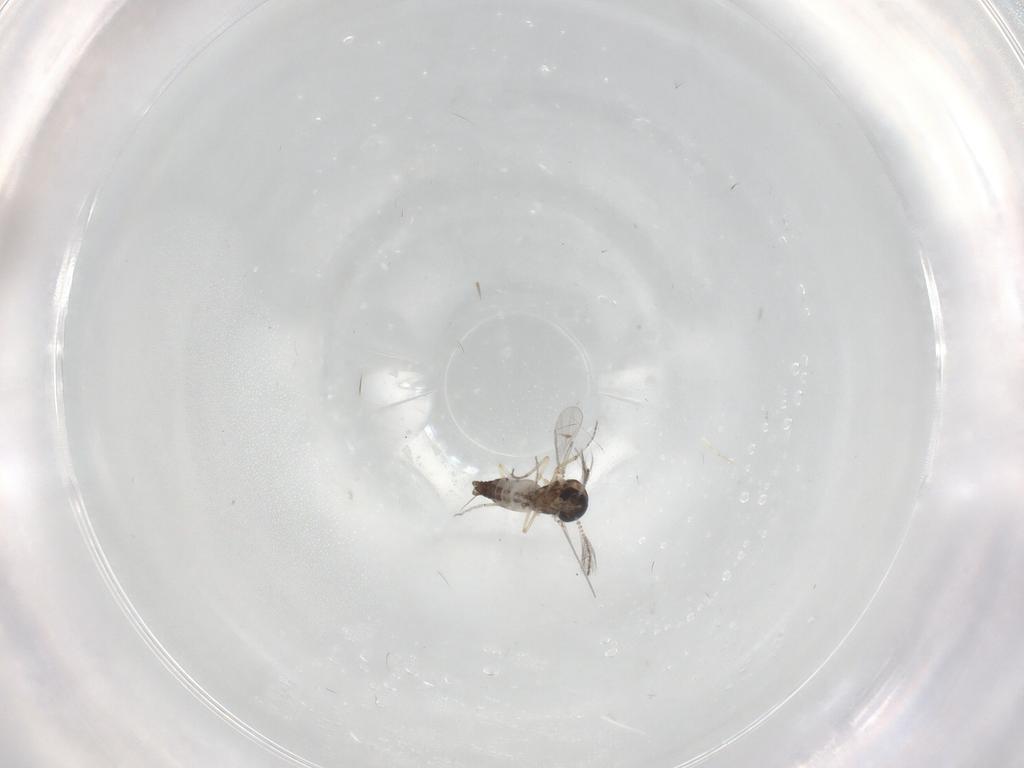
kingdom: Animalia
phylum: Arthropoda
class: Insecta
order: Diptera
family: Ceratopogonidae
